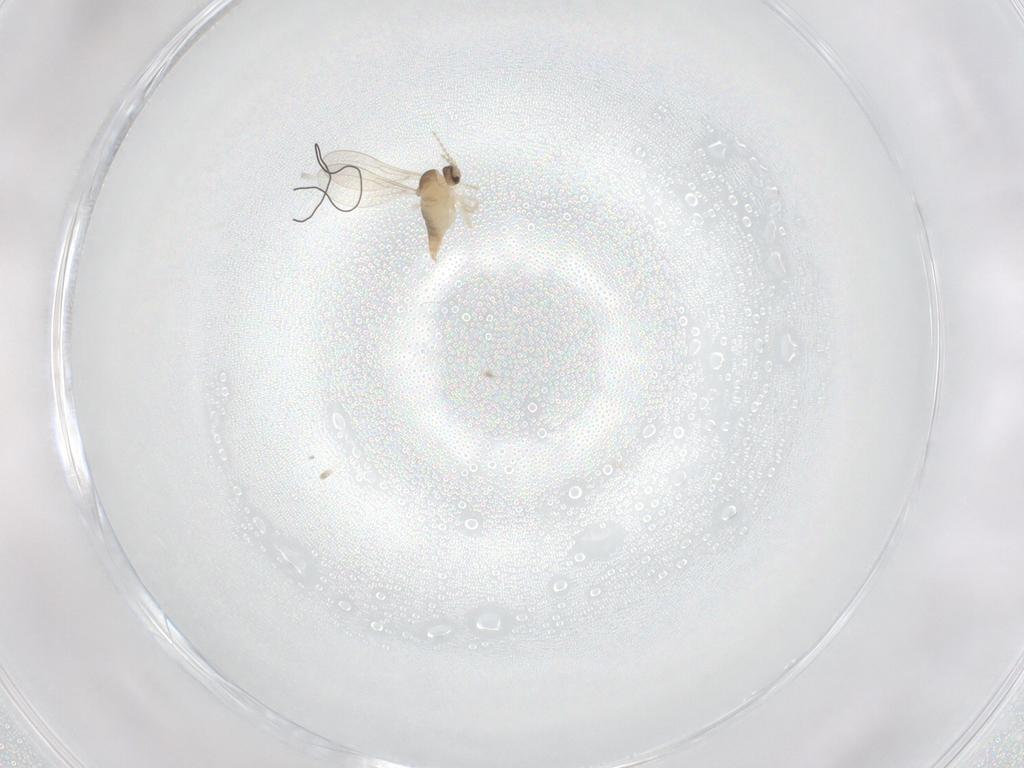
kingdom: Animalia
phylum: Arthropoda
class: Insecta
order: Diptera
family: Cecidomyiidae
